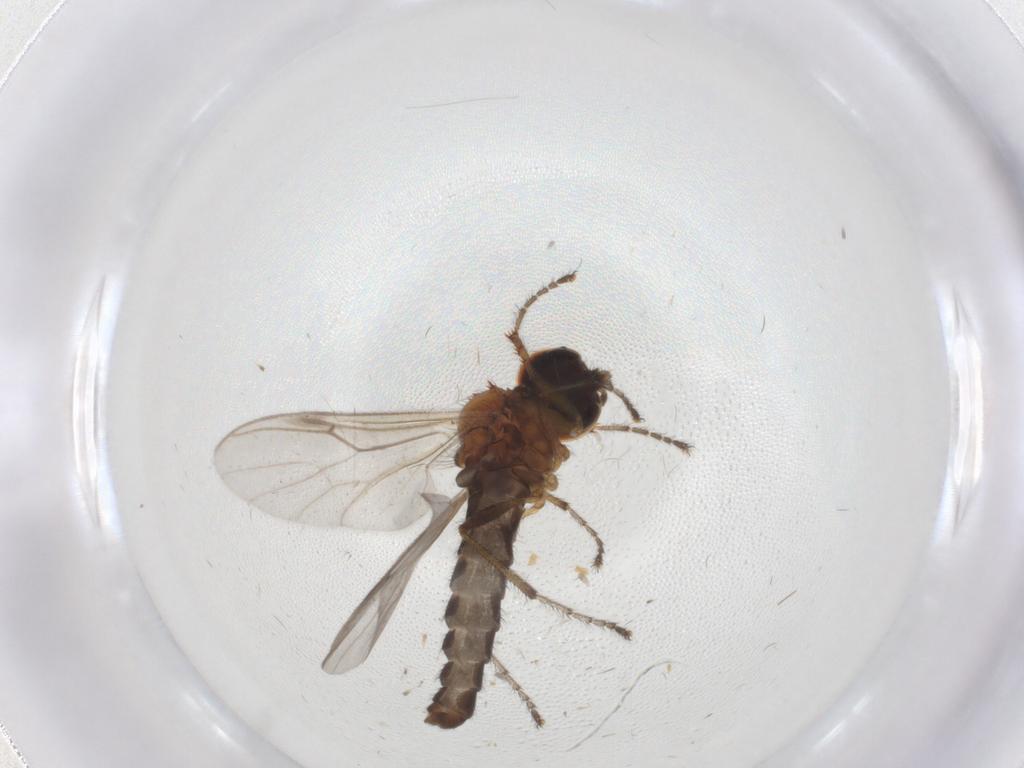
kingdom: Animalia
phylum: Arthropoda
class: Insecta
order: Diptera
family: Bibionidae
